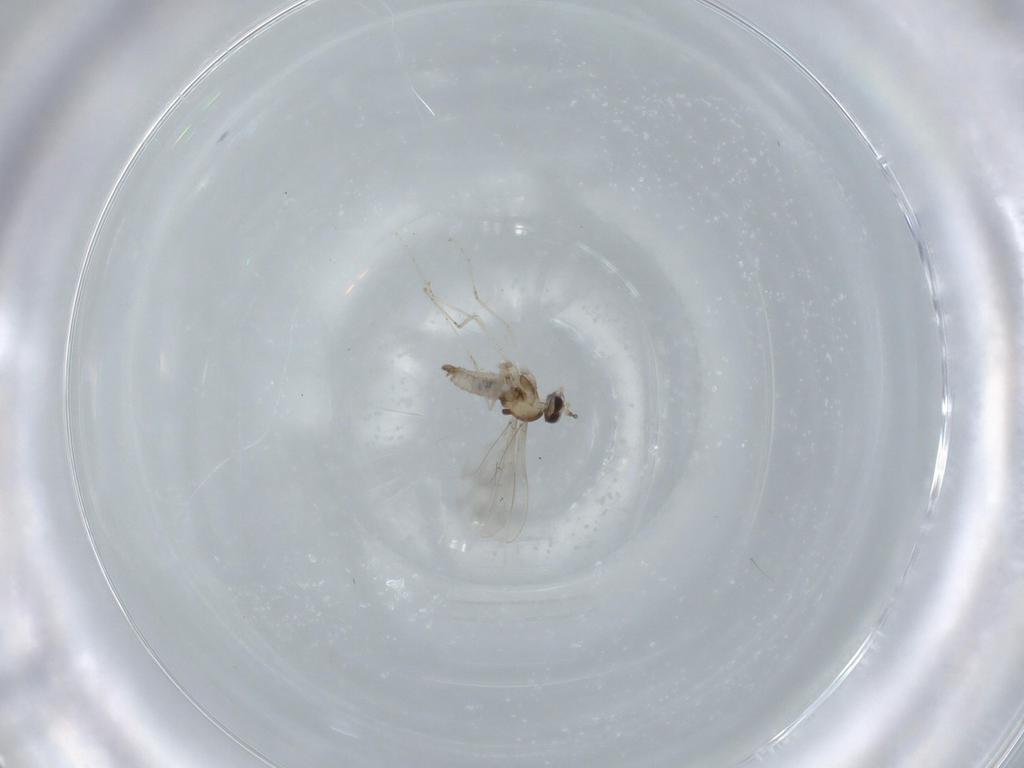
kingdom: Animalia
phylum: Arthropoda
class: Insecta
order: Diptera
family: Cecidomyiidae
